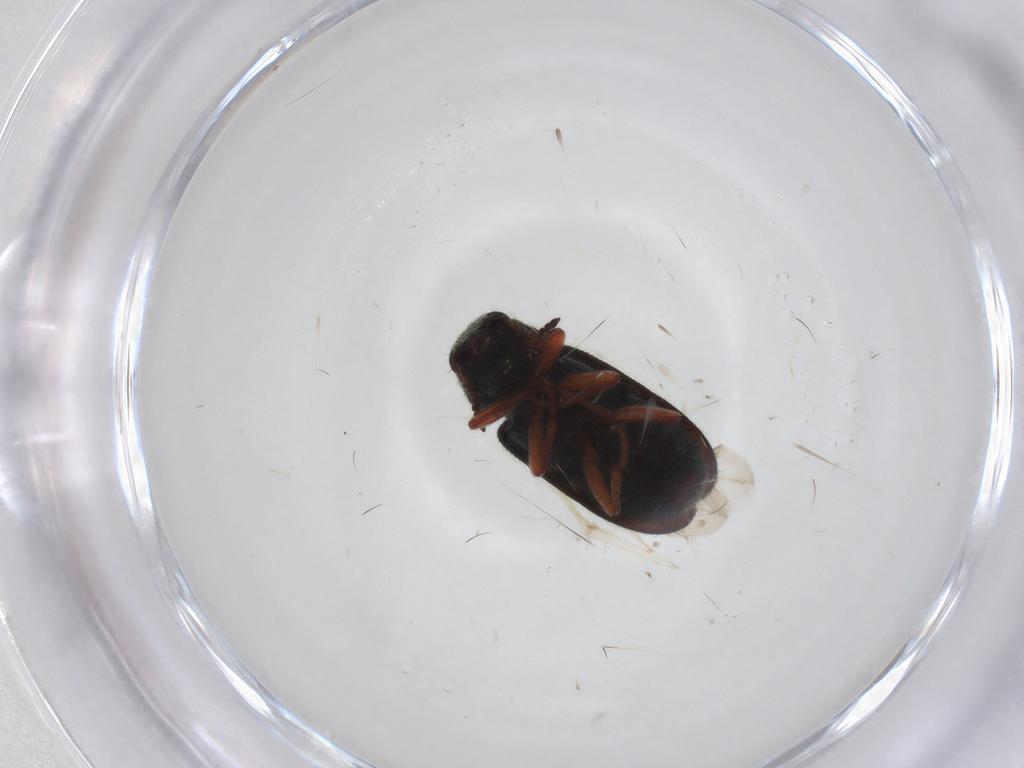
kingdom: Animalia
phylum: Arthropoda
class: Insecta
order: Coleoptera
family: Melyridae
